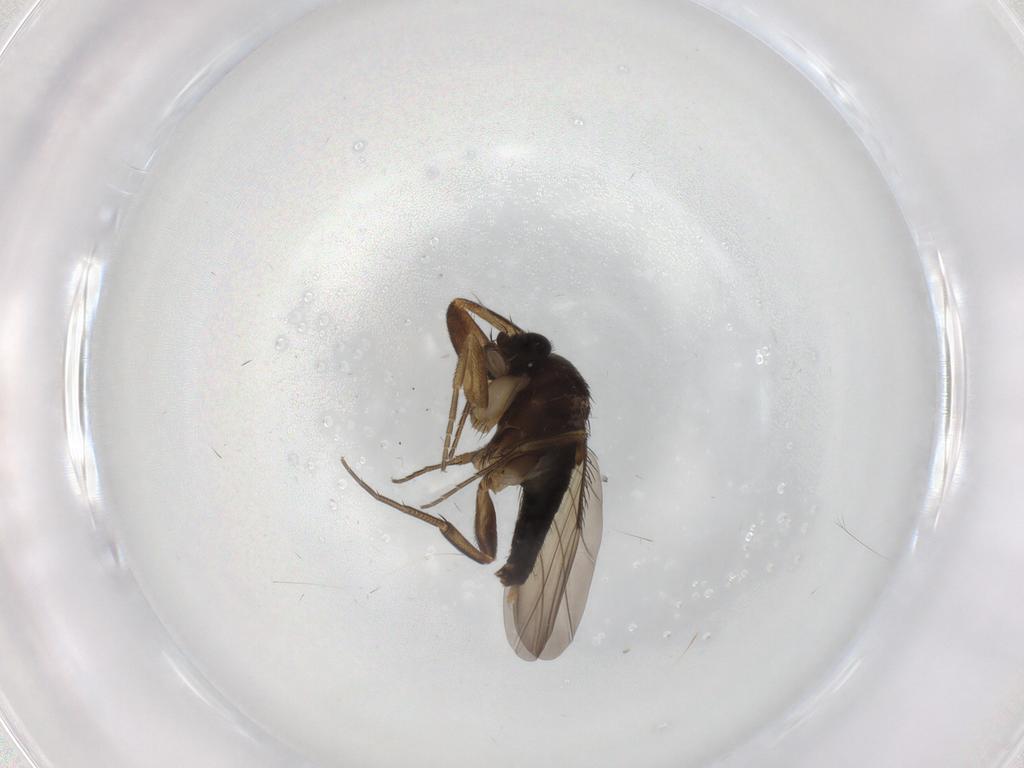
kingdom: Animalia
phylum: Arthropoda
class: Insecta
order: Diptera
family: Phoridae
